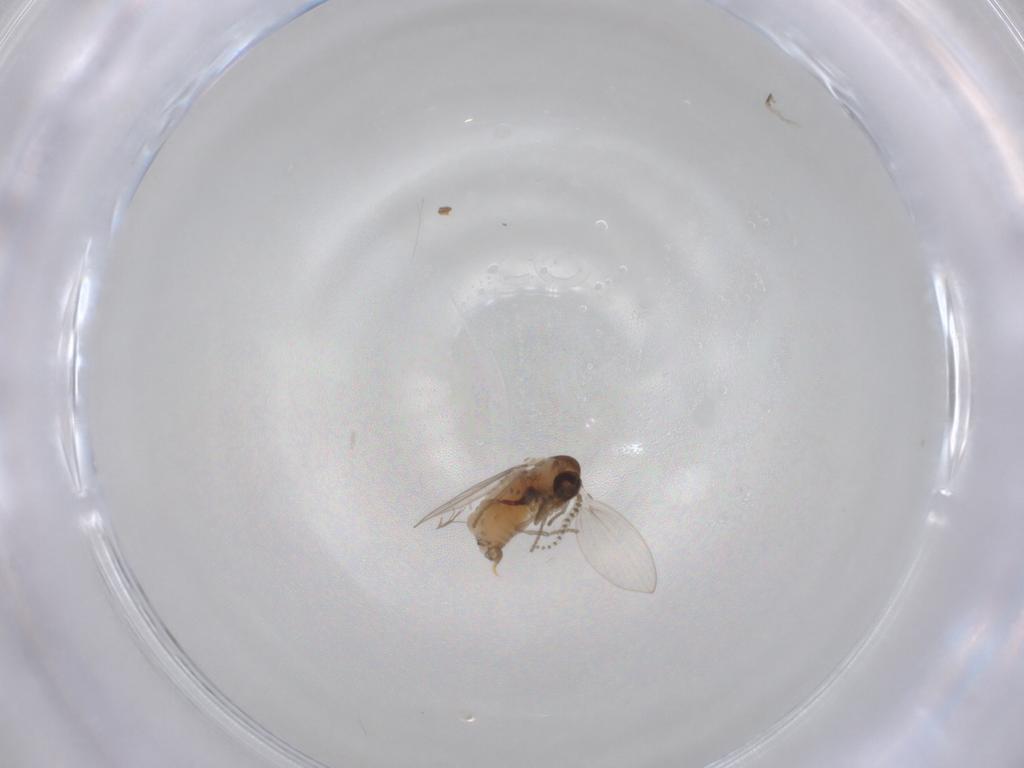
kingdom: Animalia
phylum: Arthropoda
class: Insecta
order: Diptera
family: Psychodidae
